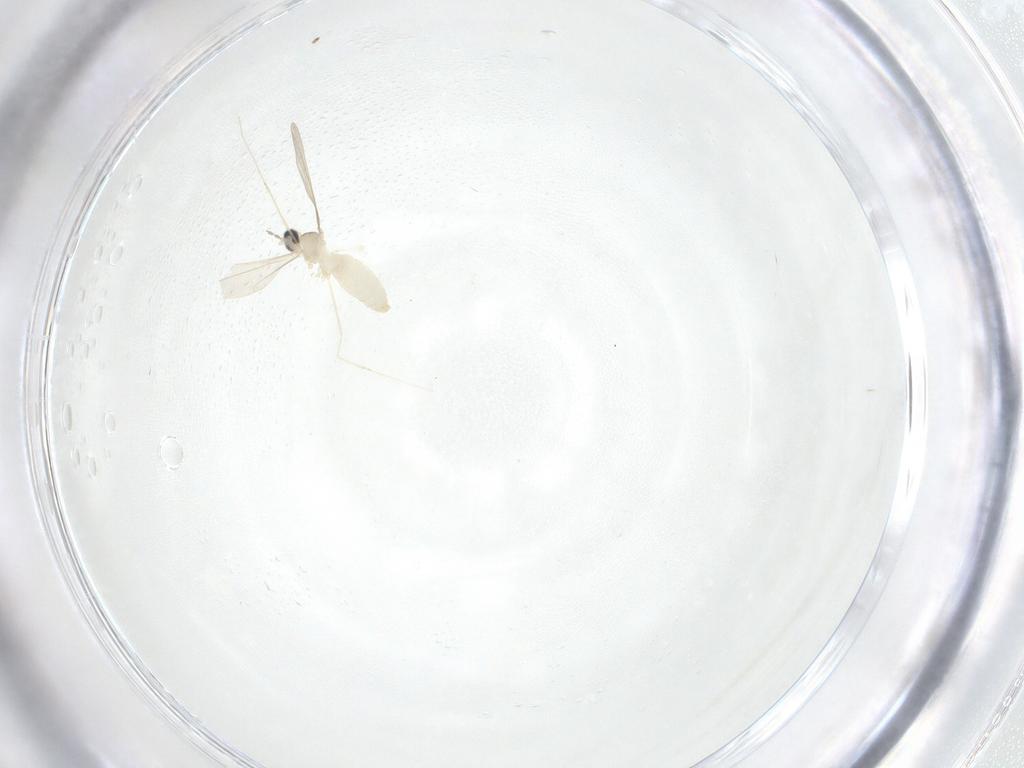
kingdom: Animalia
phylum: Arthropoda
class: Insecta
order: Diptera
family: Cecidomyiidae
